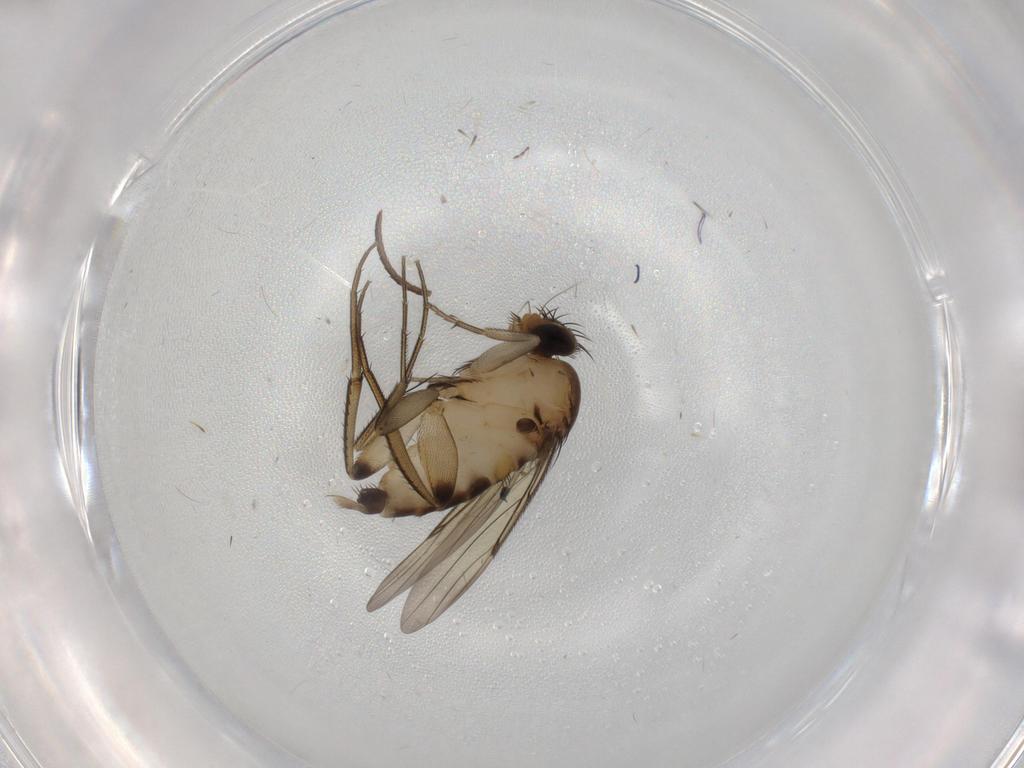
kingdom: Animalia
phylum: Arthropoda
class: Insecta
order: Diptera
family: Phoridae
